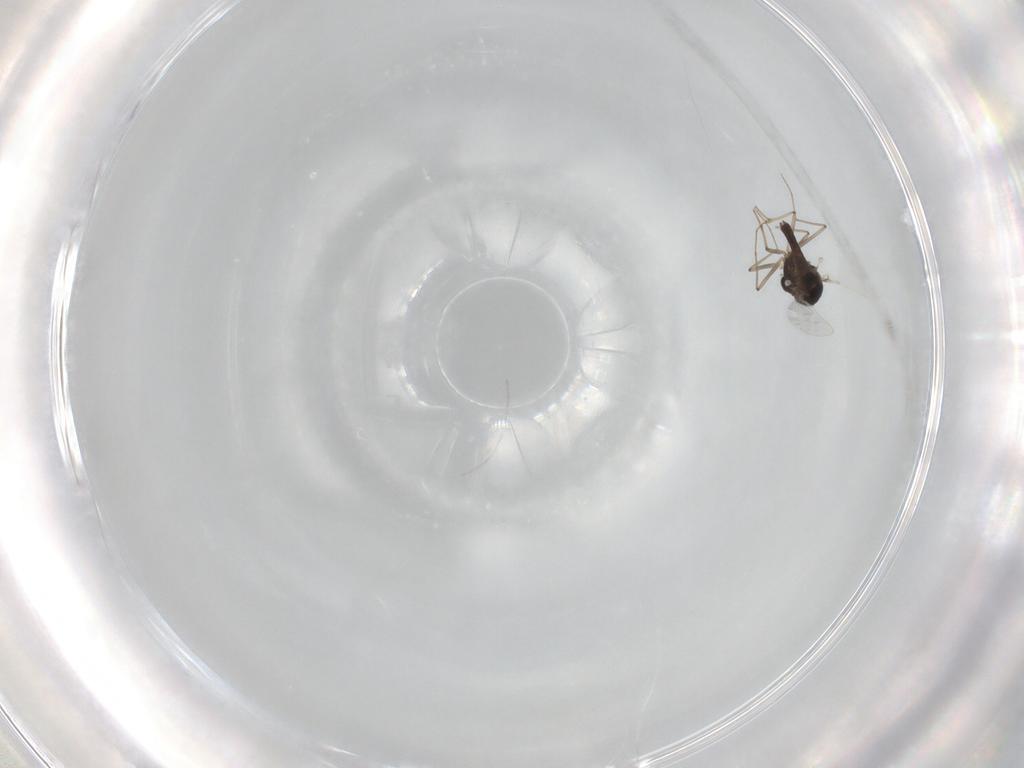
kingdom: Animalia
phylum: Arthropoda
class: Insecta
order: Diptera
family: Chironomidae
